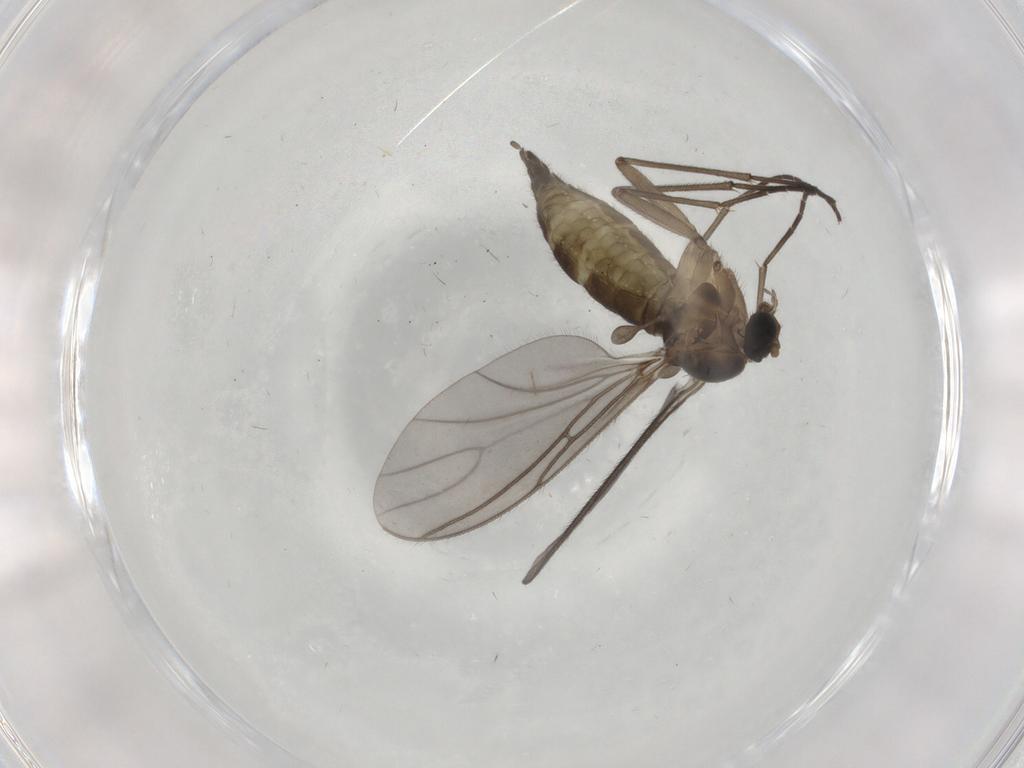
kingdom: Animalia
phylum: Arthropoda
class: Insecta
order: Diptera
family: Cecidomyiidae
